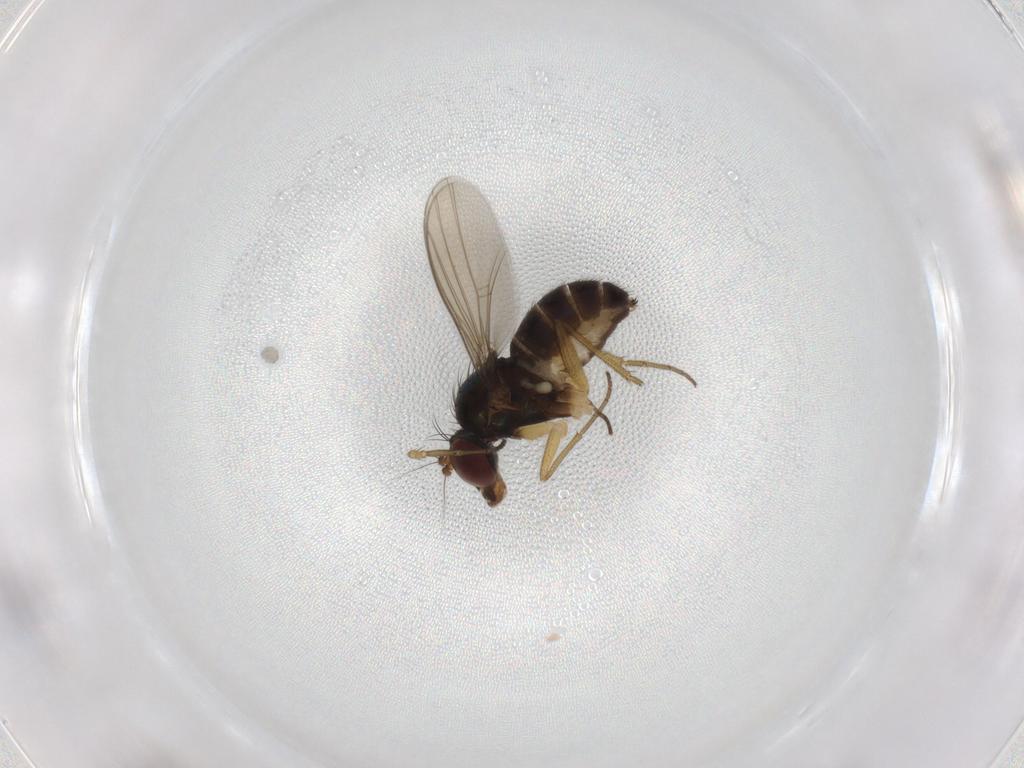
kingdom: Animalia
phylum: Arthropoda
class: Insecta
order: Diptera
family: Dolichopodidae
